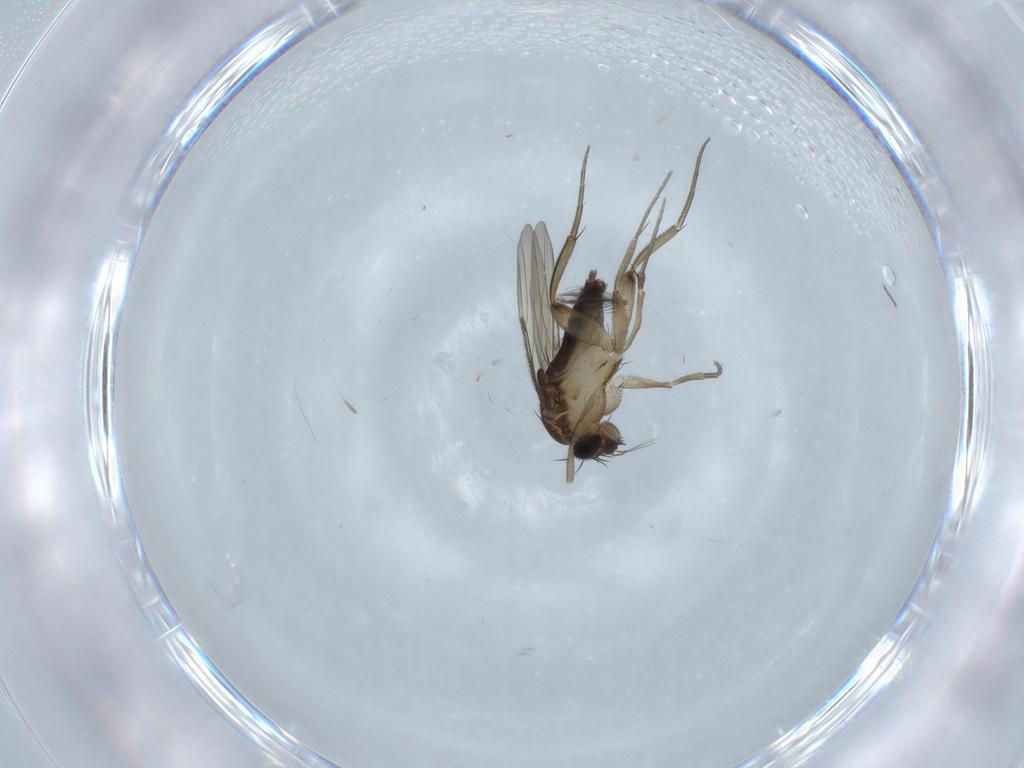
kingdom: Animalia
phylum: Arthropoda
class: Insecta
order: Diptera
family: Phoridae
